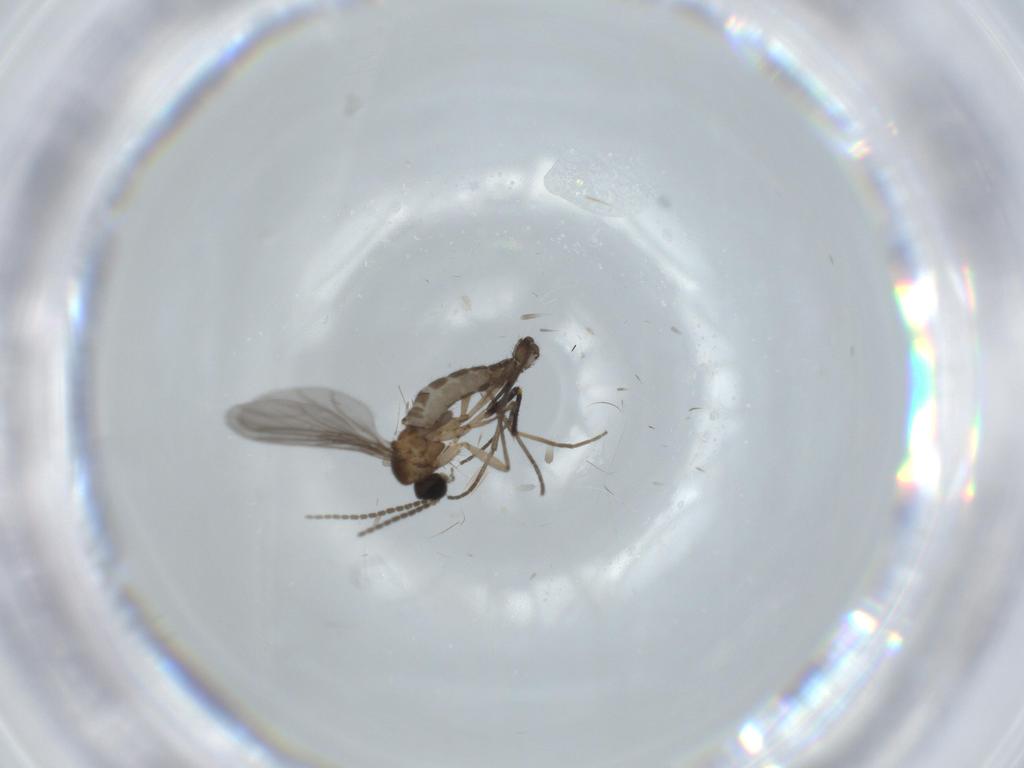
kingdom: Animalia
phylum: Arthropoda
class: Insecta
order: Diptera
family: Sciaridae
